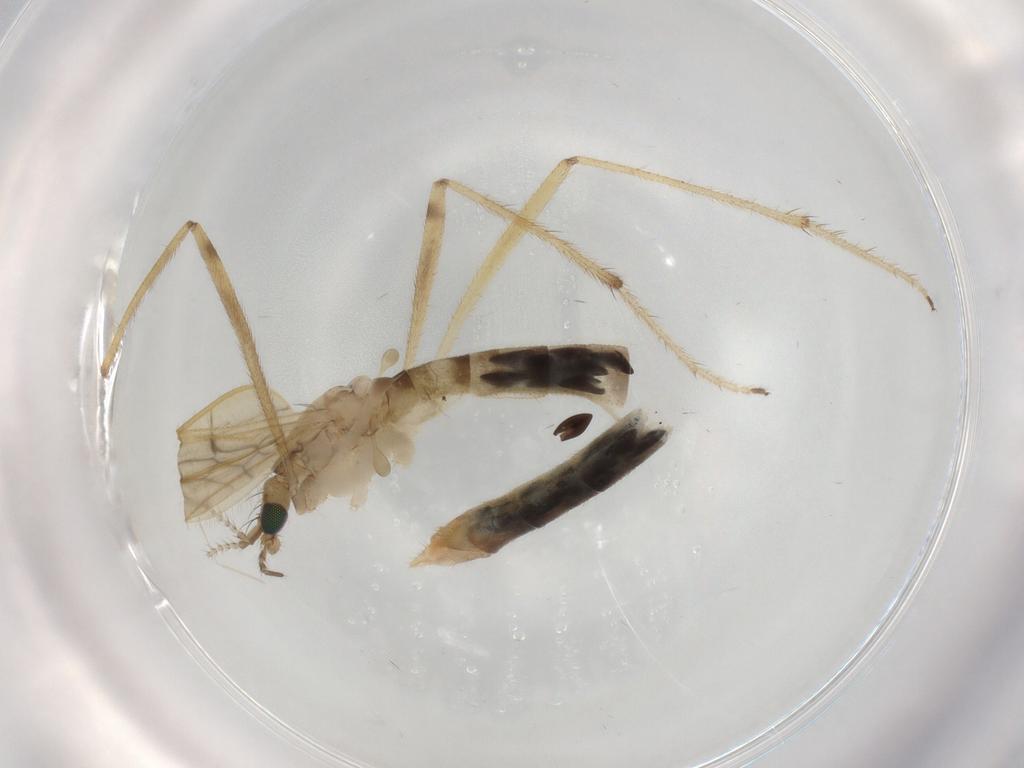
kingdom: Animalia
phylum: Arthropoda
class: Insecta
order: Diptera
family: Limoniidae
